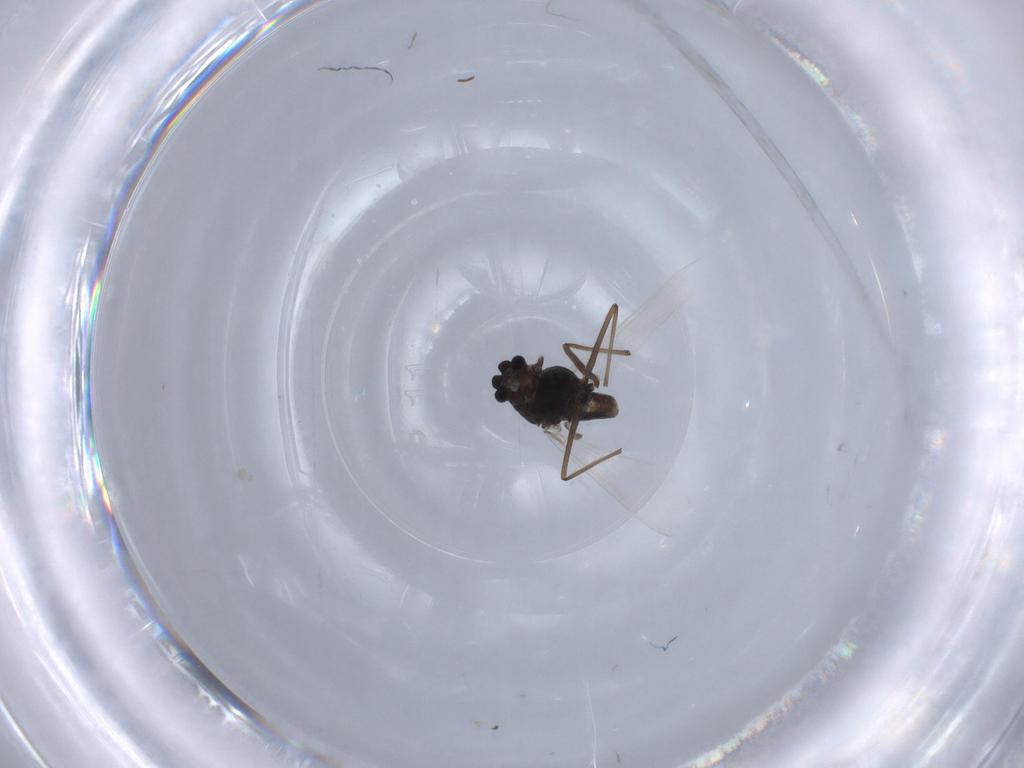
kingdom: Animalia
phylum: Arthropoda
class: Insecta
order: Diptera
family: Chironomidae
